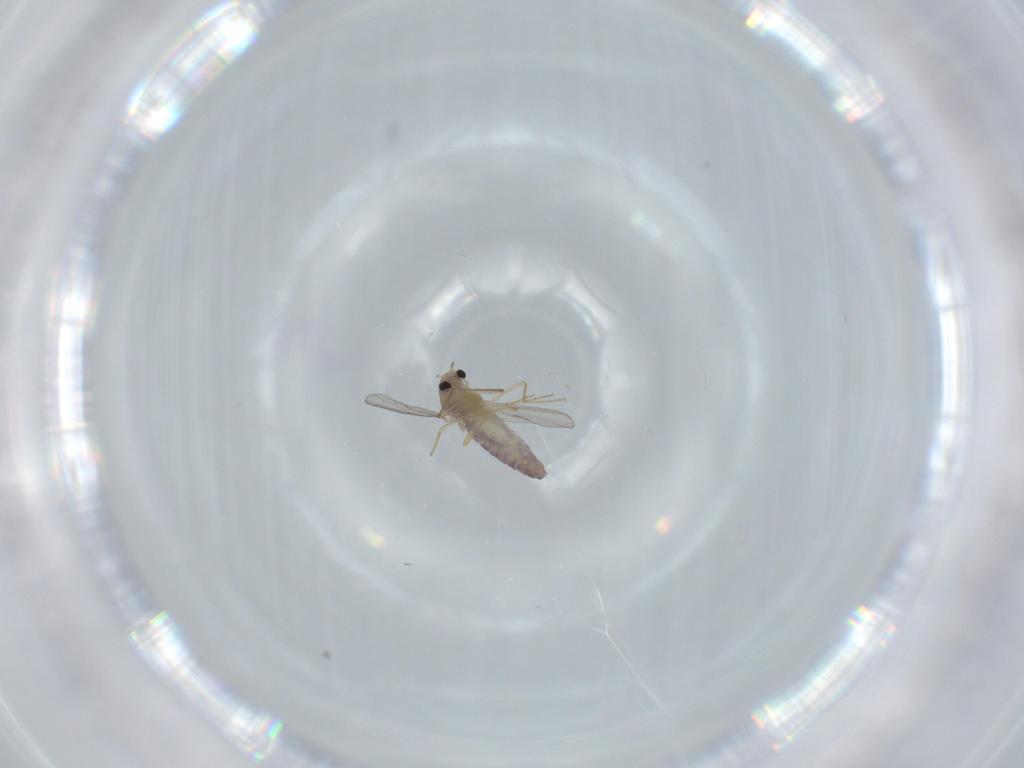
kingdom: Animalia
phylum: Arthropoda
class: Insecta
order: Diptera
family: Chironomidae
